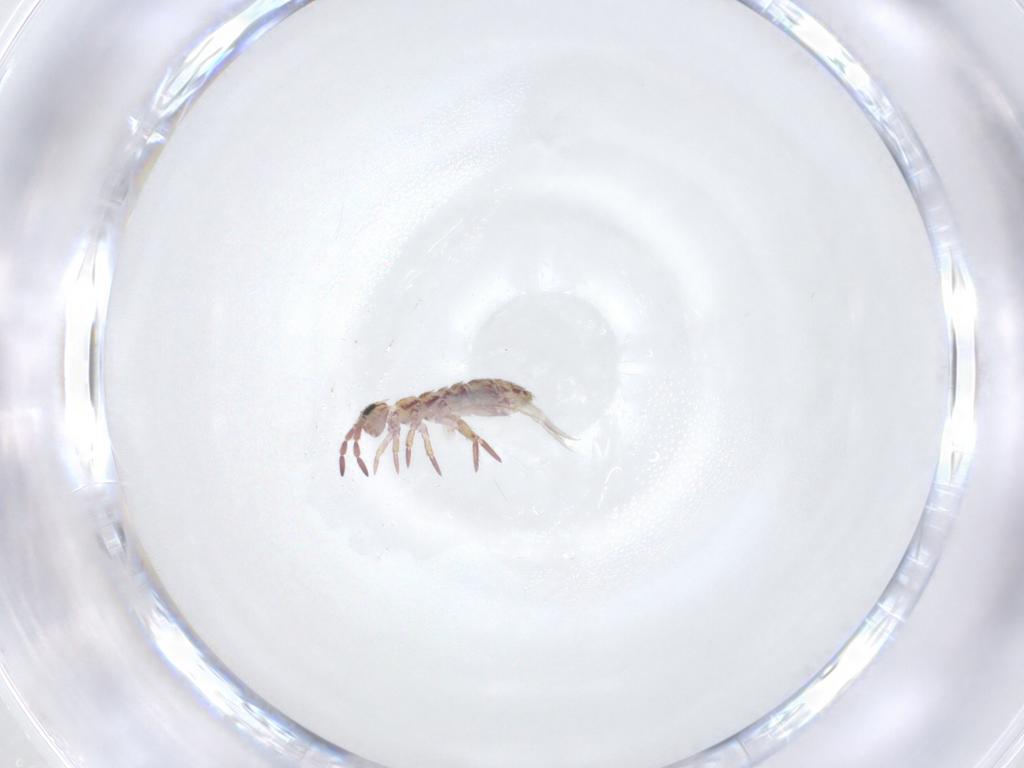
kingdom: Animalia
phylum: Arthropoda
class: Collembola
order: Entomobryomorpha
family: Isotomidae
